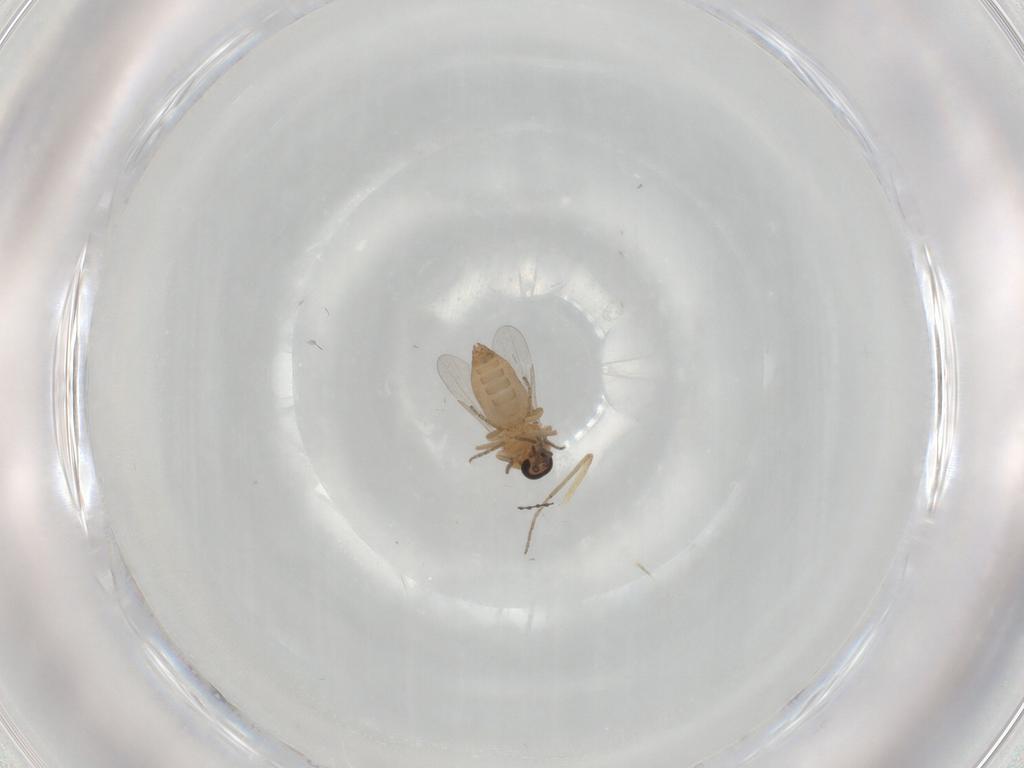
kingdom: Animalia
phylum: Arthropoda
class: Insecta
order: Diptera
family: Ceratopogonidae
